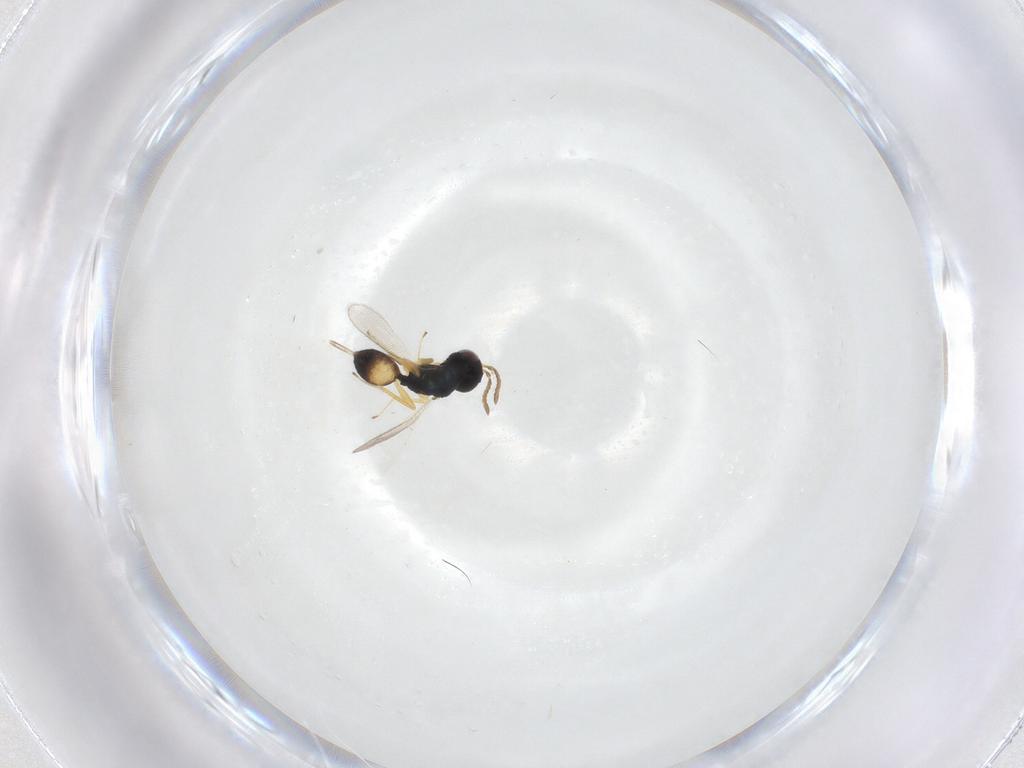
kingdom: Animalia
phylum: Arthropoda
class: Insecta
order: Hymenoptera
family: Pteromalidae
